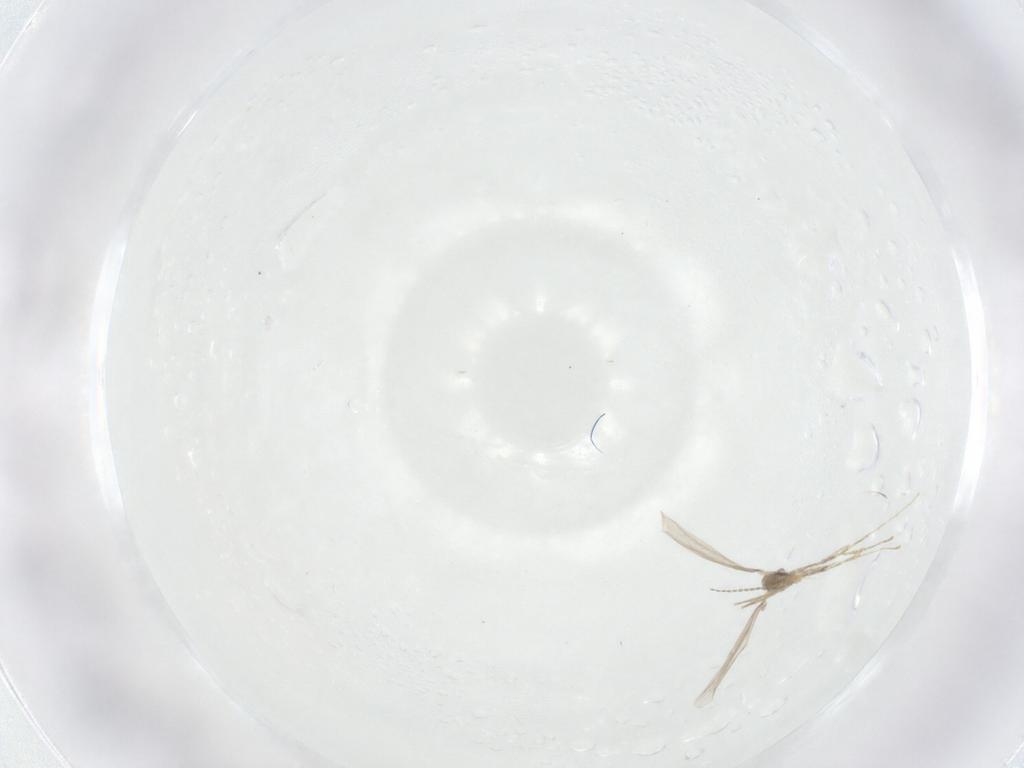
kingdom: Animalia
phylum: Arthropoda
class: Insecta
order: Diptera
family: Cecidomyiidae
